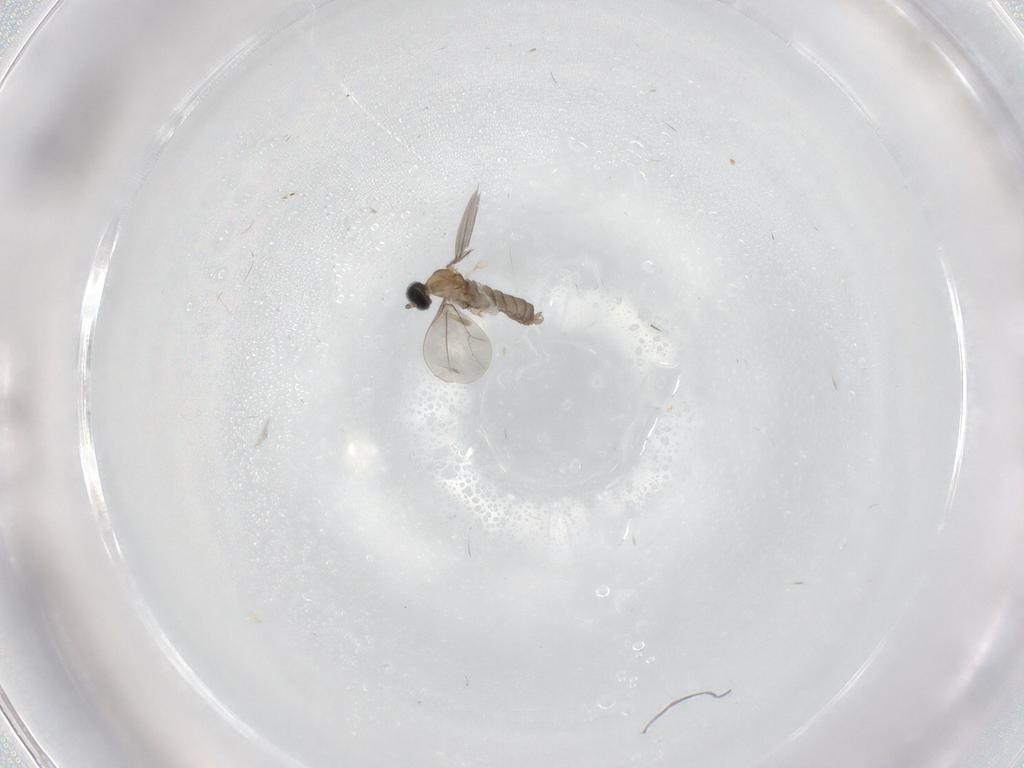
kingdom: Animalia
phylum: Arthropoda
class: Insecta
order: Diptera
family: Cecidomyiidae
